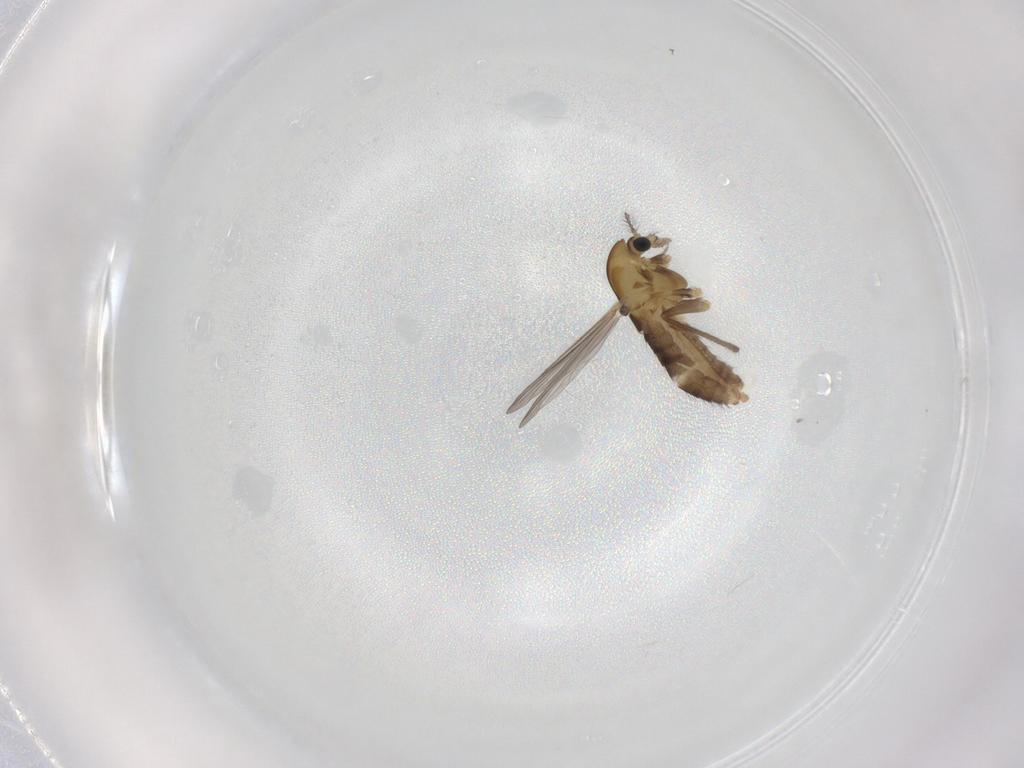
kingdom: Animalia
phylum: Arthropoda
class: Insecta
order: Diptera
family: Chironomidae
